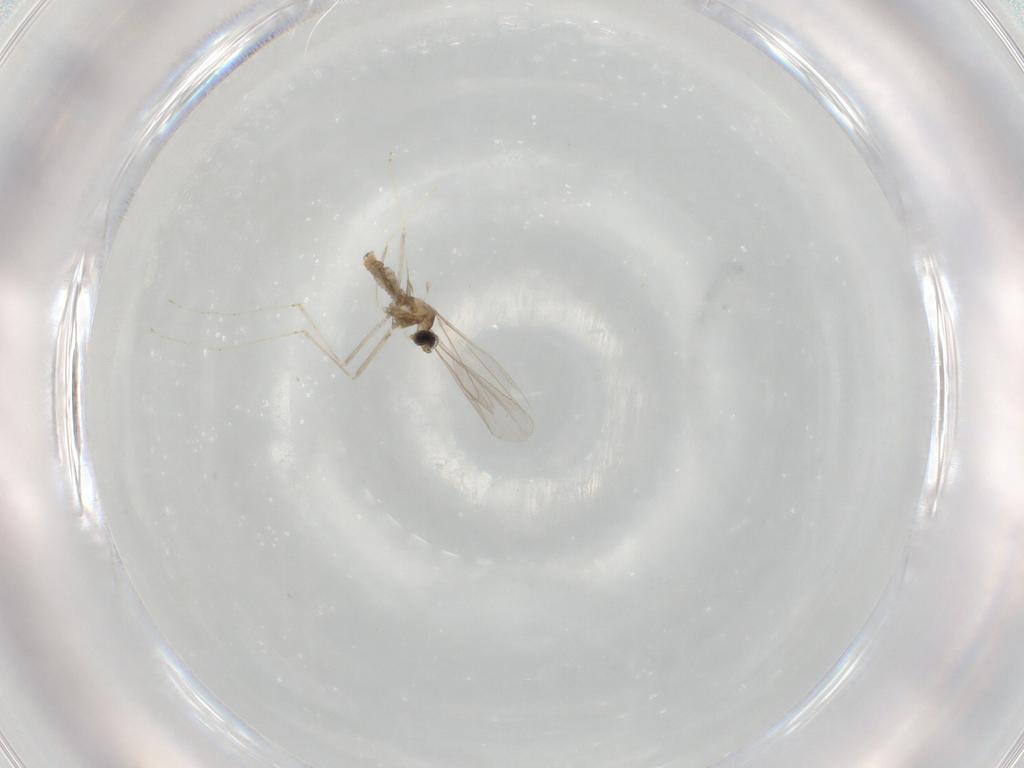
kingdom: Animalia
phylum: Arthropoda
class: Insecta
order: Diptera
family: Cecidomyiidae
